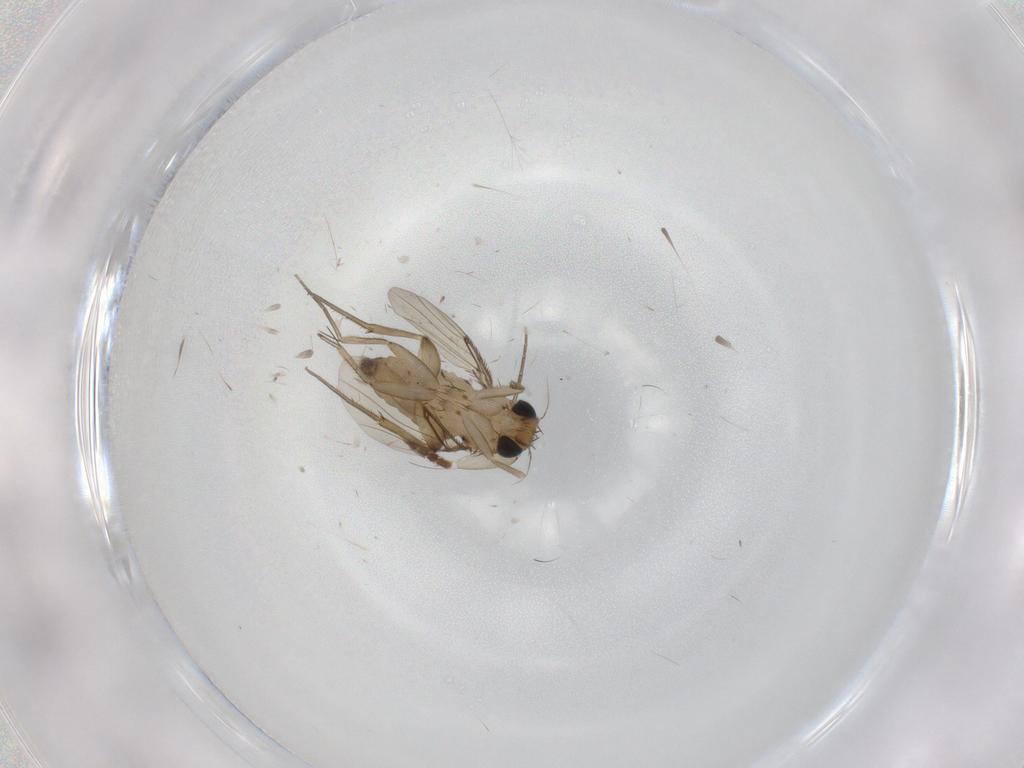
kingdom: Animalia
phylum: Arthropoda
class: Insecta
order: Diptera
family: Phoridae
